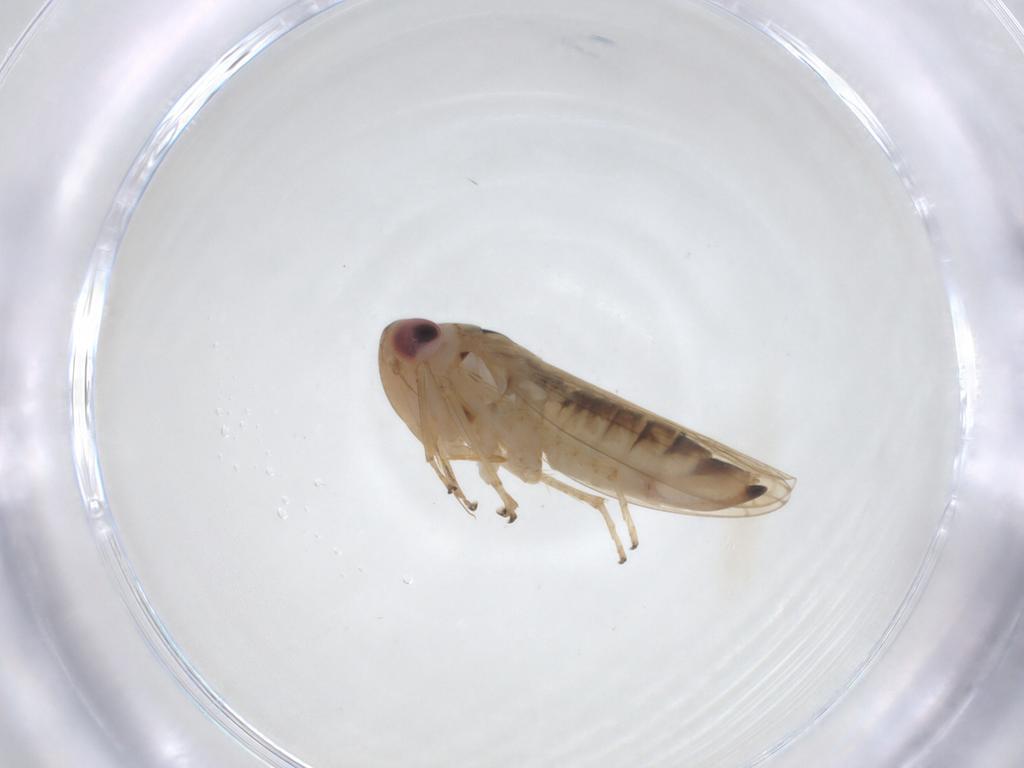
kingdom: Animalia
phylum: Arthropoda
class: Insecta
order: Hemiptera
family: Cicadellidae
